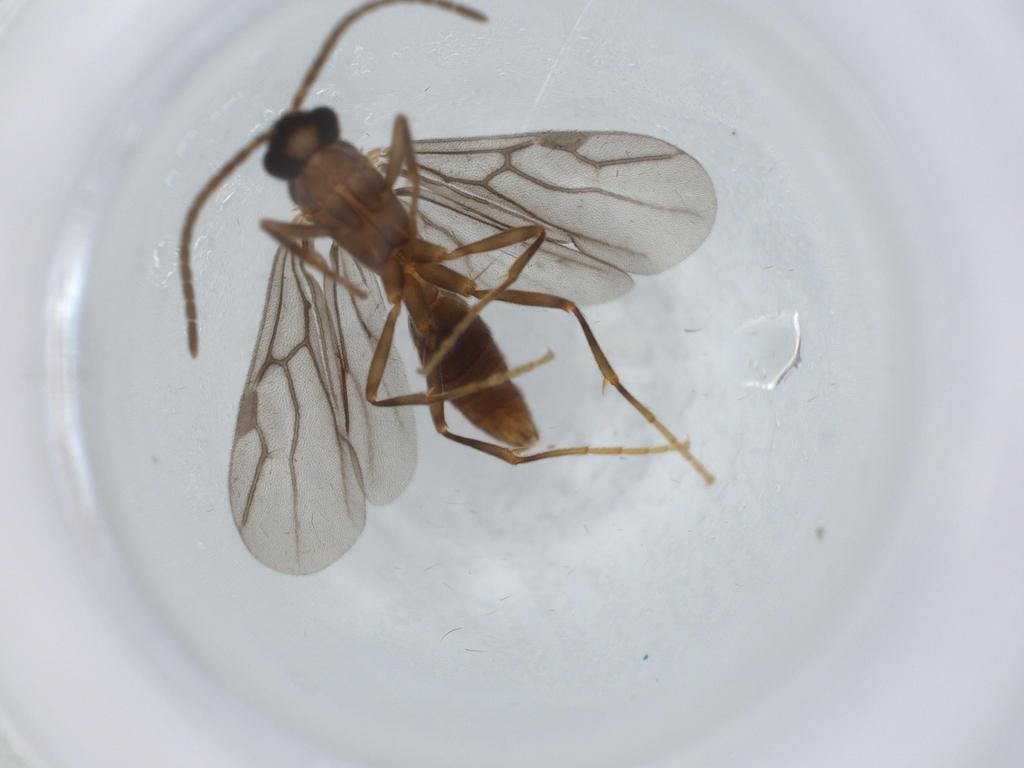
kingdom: Animalia
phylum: Arthropoda
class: Insecta
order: Hymenoptera
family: Formicidae
